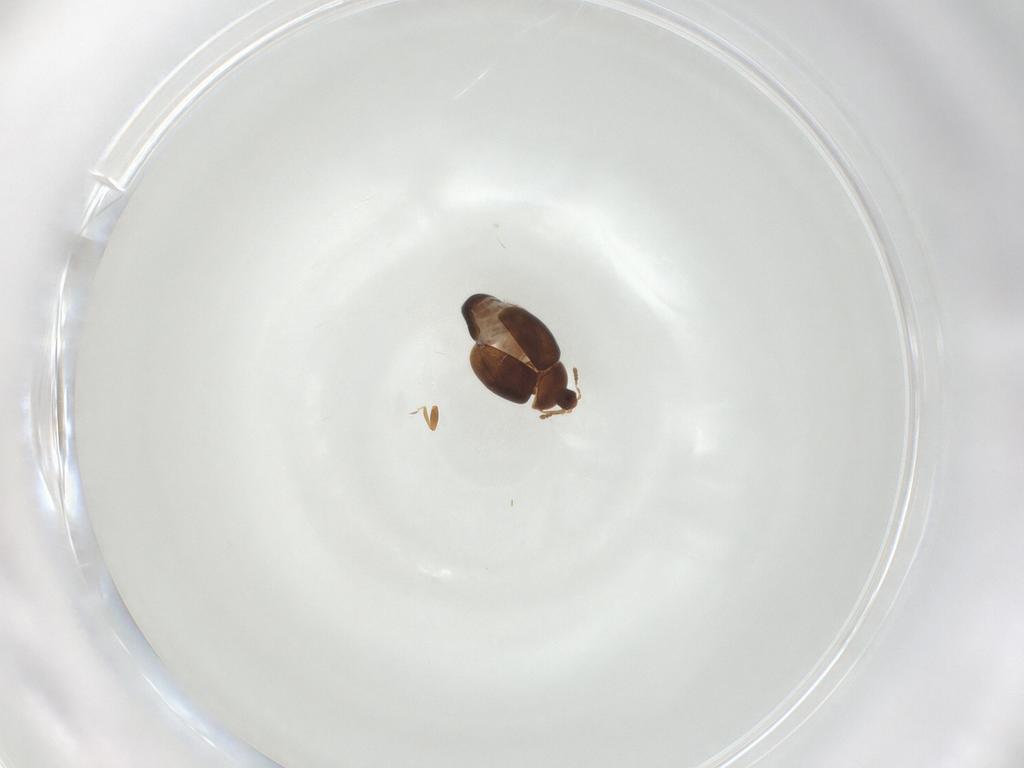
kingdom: Animalia
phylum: Arthropoda
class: Insecta
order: Coleoptera
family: Corylophidae
